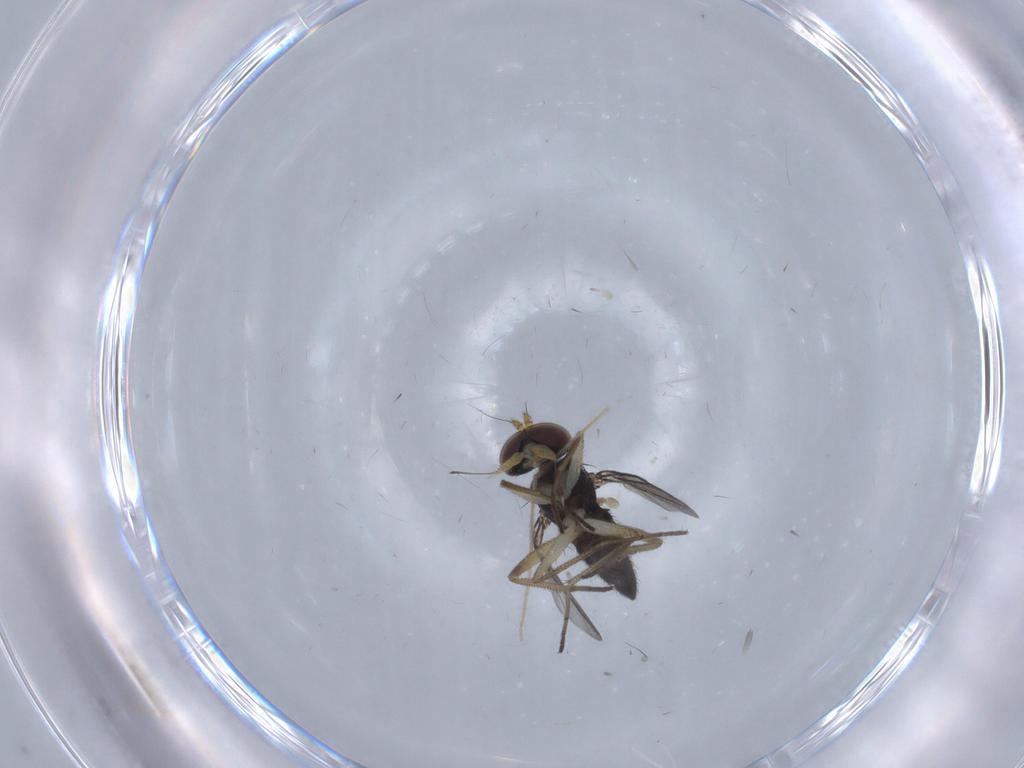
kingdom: Animalia
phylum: Arthropoda
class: Insecta
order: Diptera
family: Dolichopodidae
